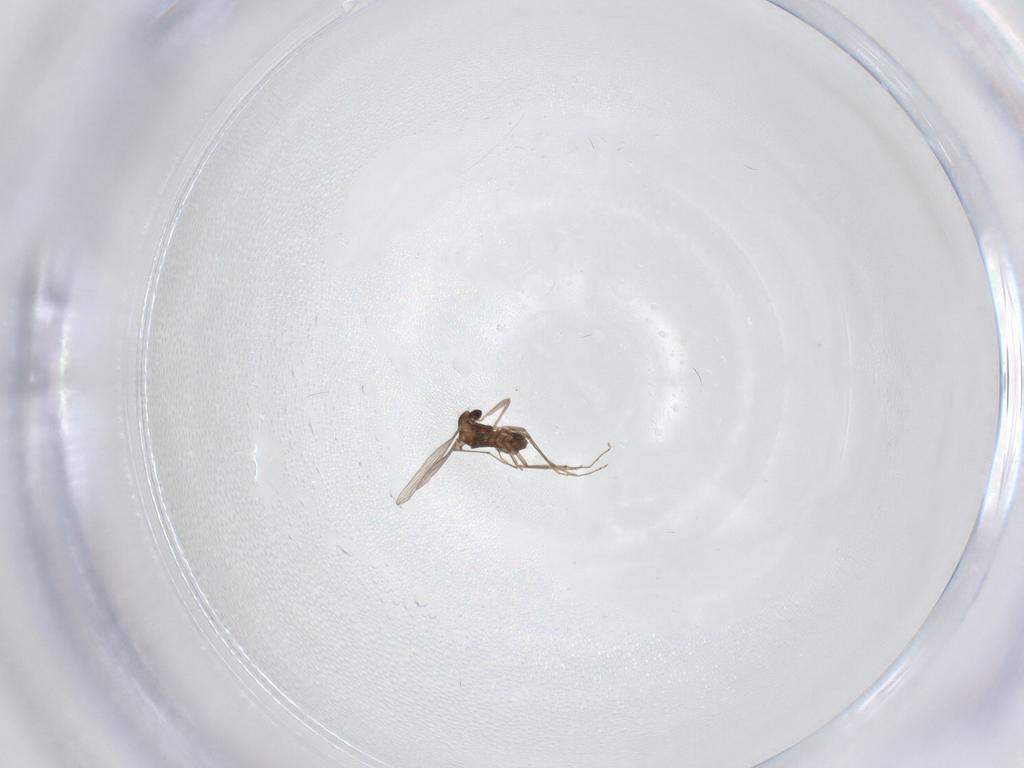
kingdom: Animalia
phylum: Arthropoda
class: Insecta
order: Diptera
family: Chironomidae
